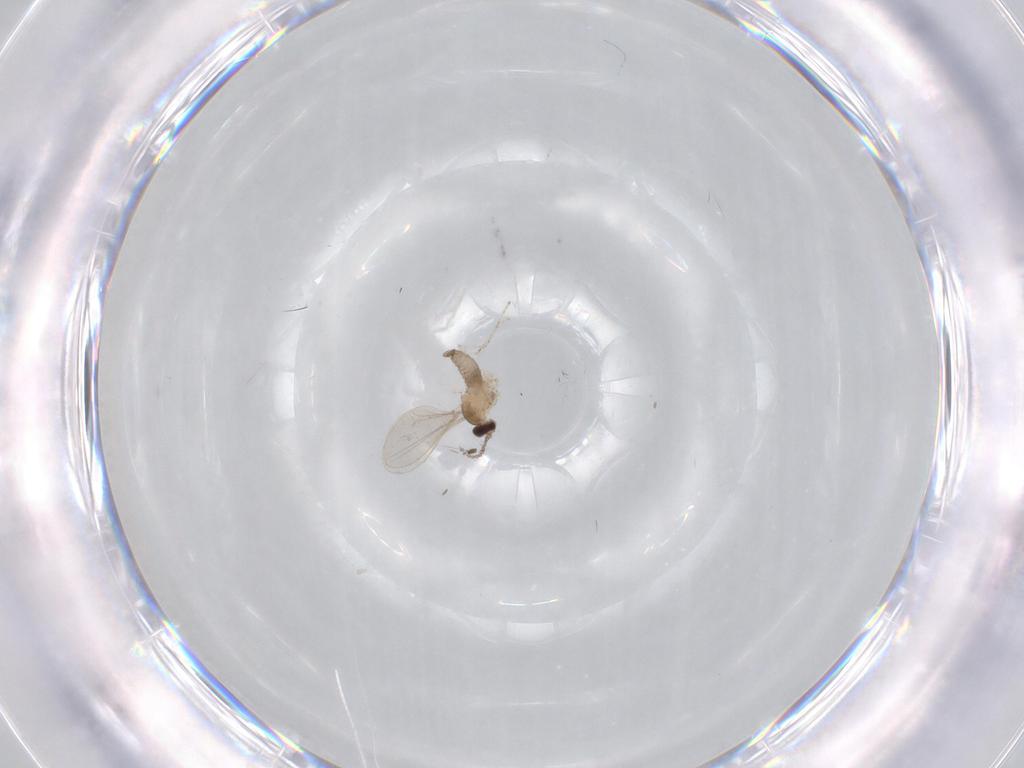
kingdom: Animalia
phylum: Arthropoda
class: Insecta
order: Diptera
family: Cecidomyiidae
